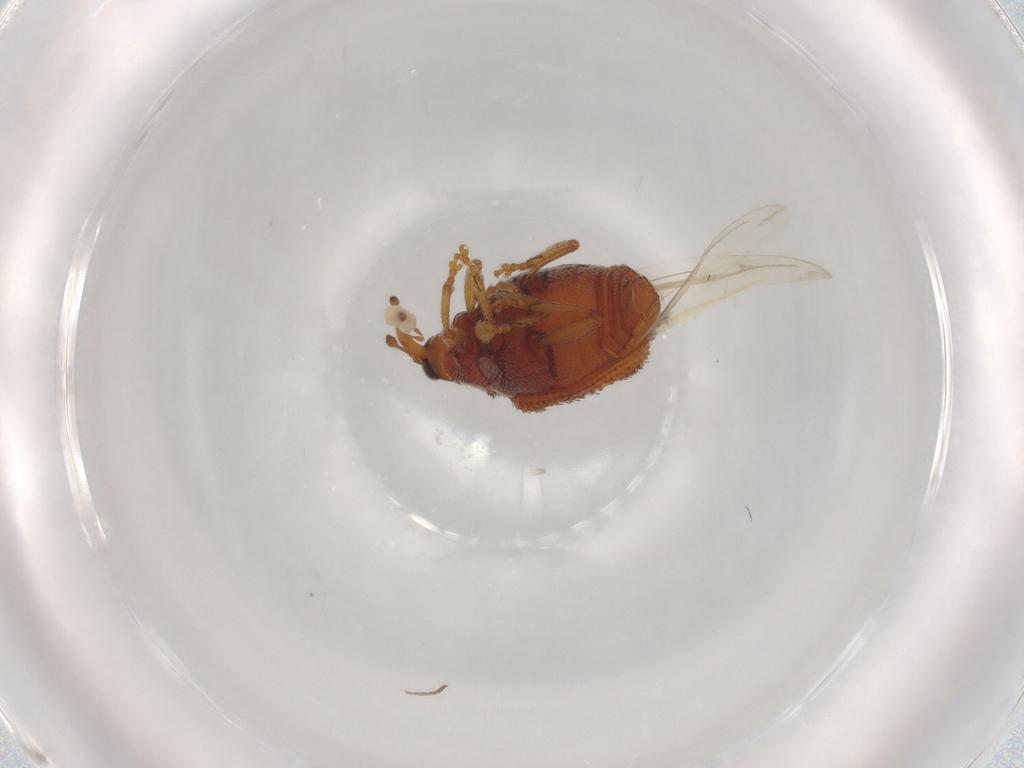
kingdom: Animalia
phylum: Arthropoda
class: Insecta
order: Coleoptera
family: Curculionidae
